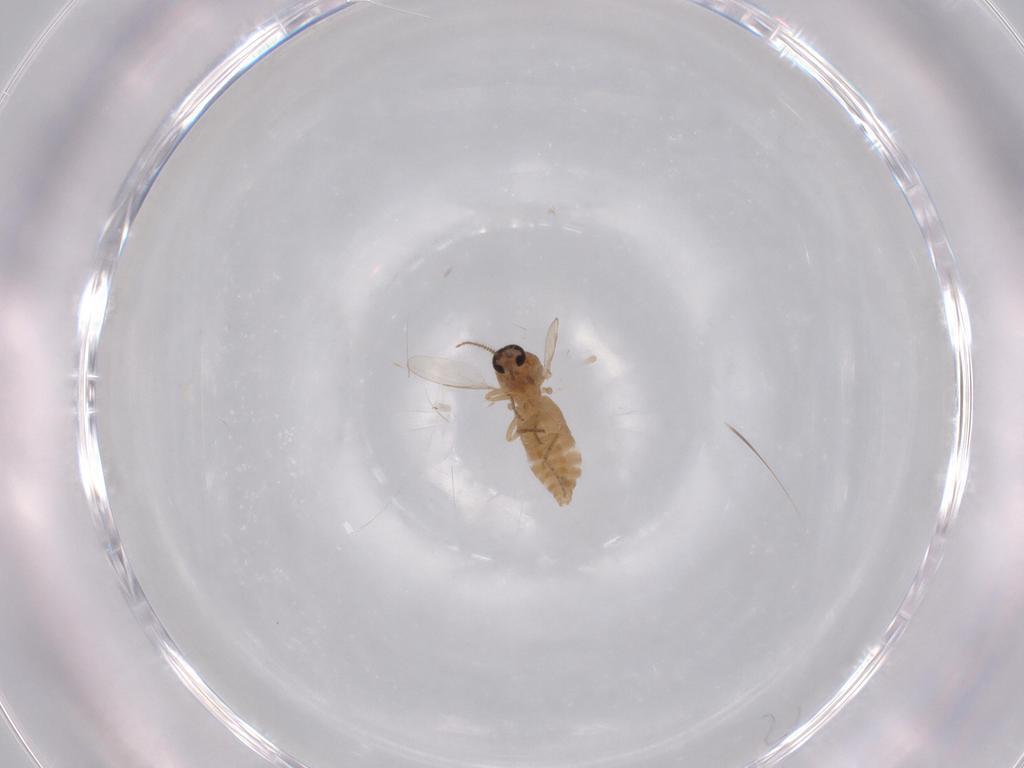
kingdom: Animalia
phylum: Arthropoda
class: Insecta
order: Diptera
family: Ceratopogonidae
